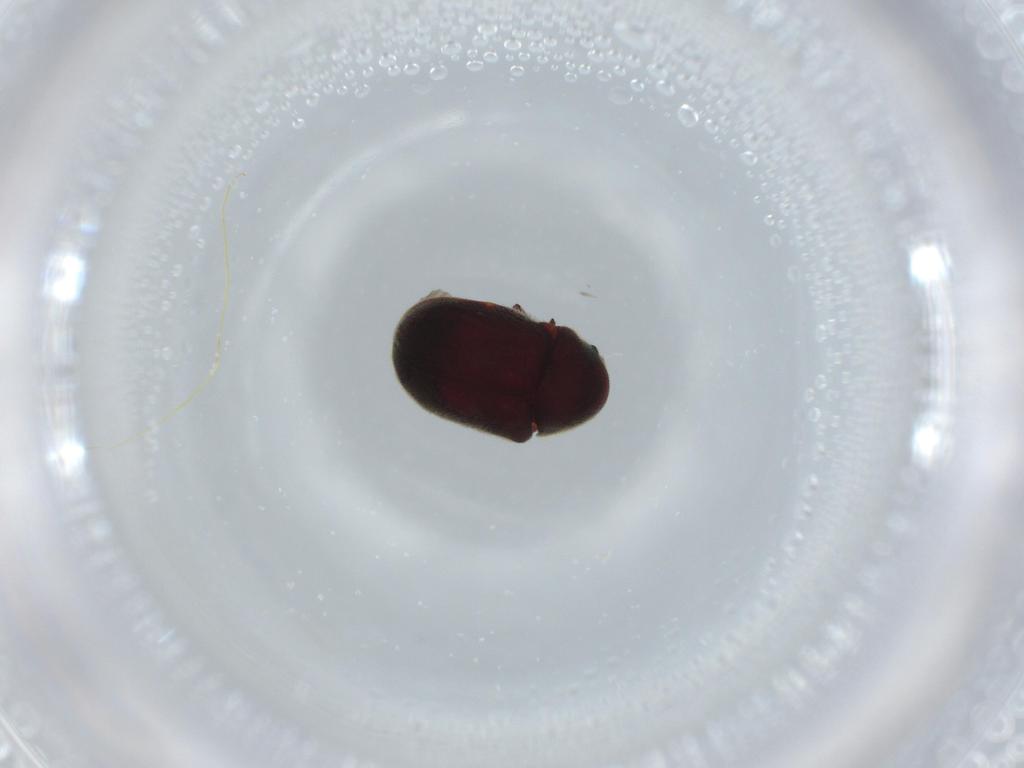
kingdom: Animalia
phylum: Arthropoda
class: Insecta
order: Coleoptera
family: Ptinidae
